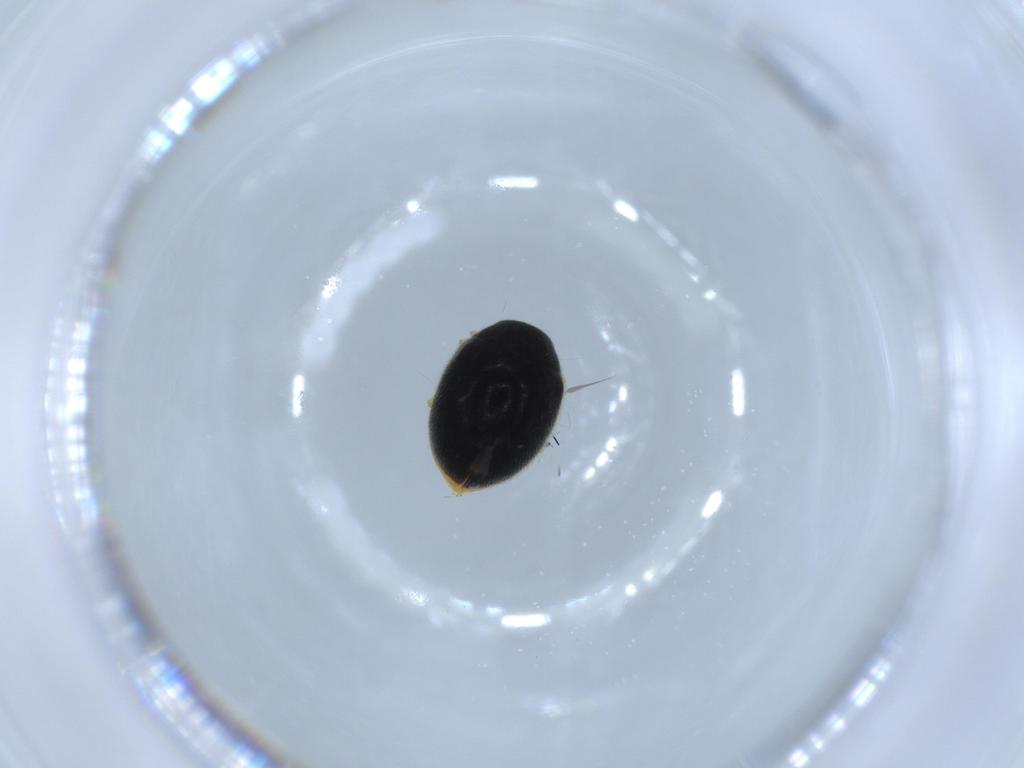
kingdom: Animalia
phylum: Arthropoda
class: Insecta
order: Coleoptera
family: Coccinellidae
